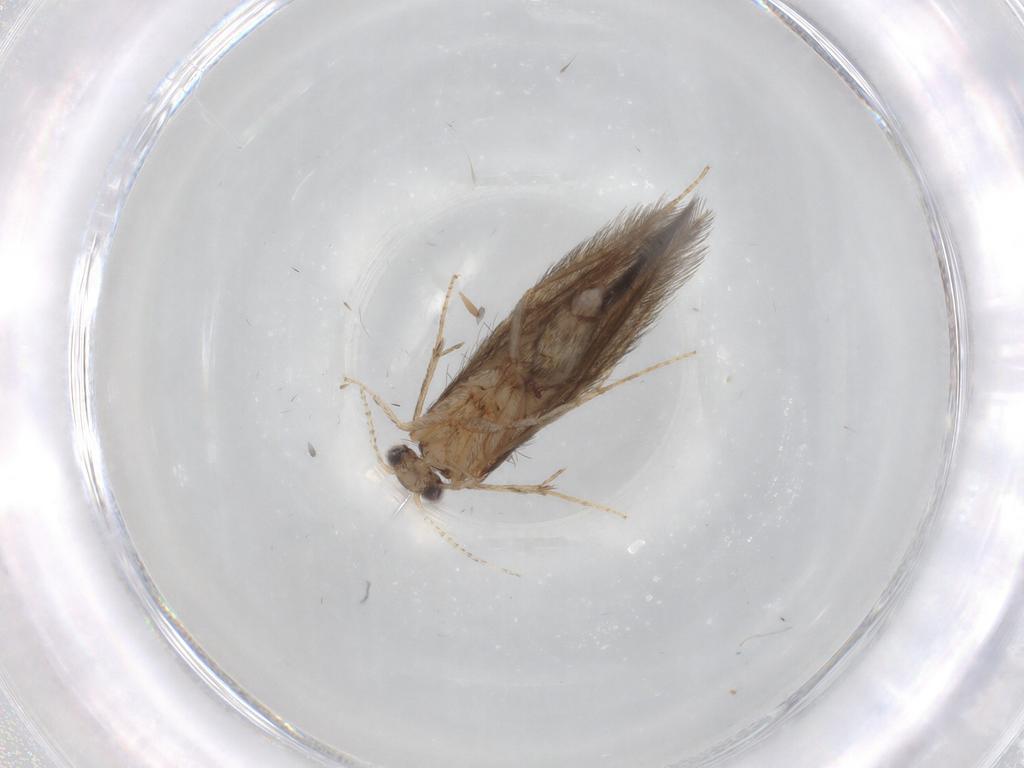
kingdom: Animalia
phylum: Arthropoda
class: Insecta
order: Trichoptera
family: Hydroptilidae
